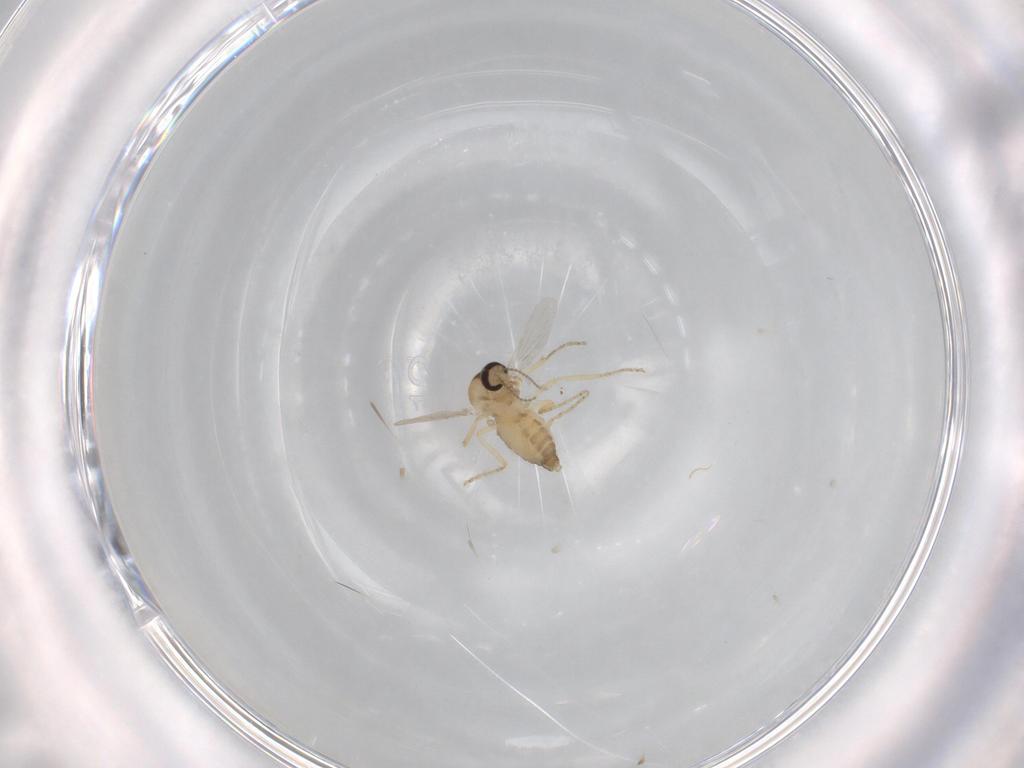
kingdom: Animalia
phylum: Arthropoda
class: Insecta
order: Diptera
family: Ceratopogonidae
